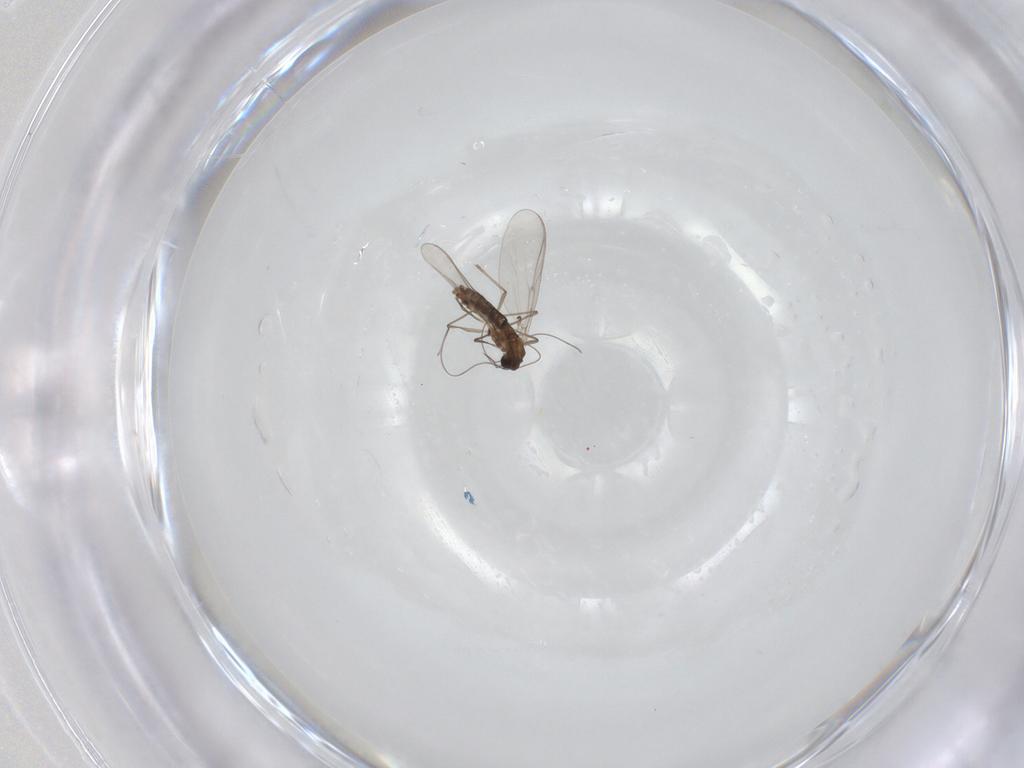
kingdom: Animalia
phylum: Arthropoda
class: Insecta
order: Diptera
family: Chironomidae
